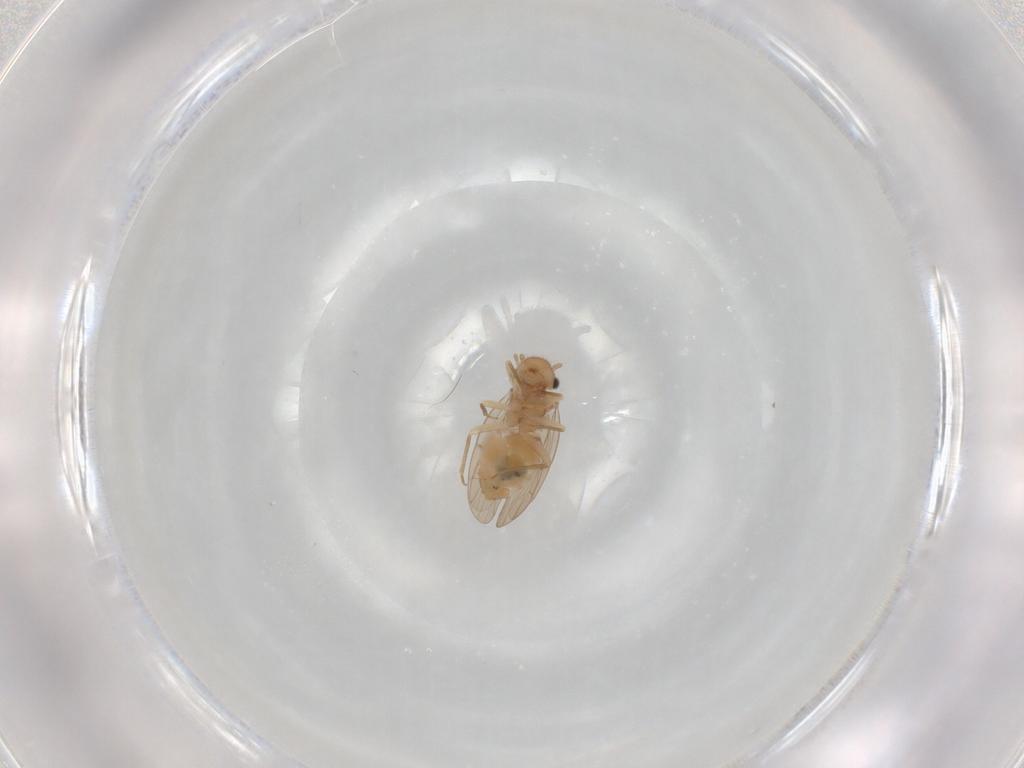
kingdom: Animalia
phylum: Arthropoda
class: Insecta
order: Psocodea
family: Ectopsocidae
